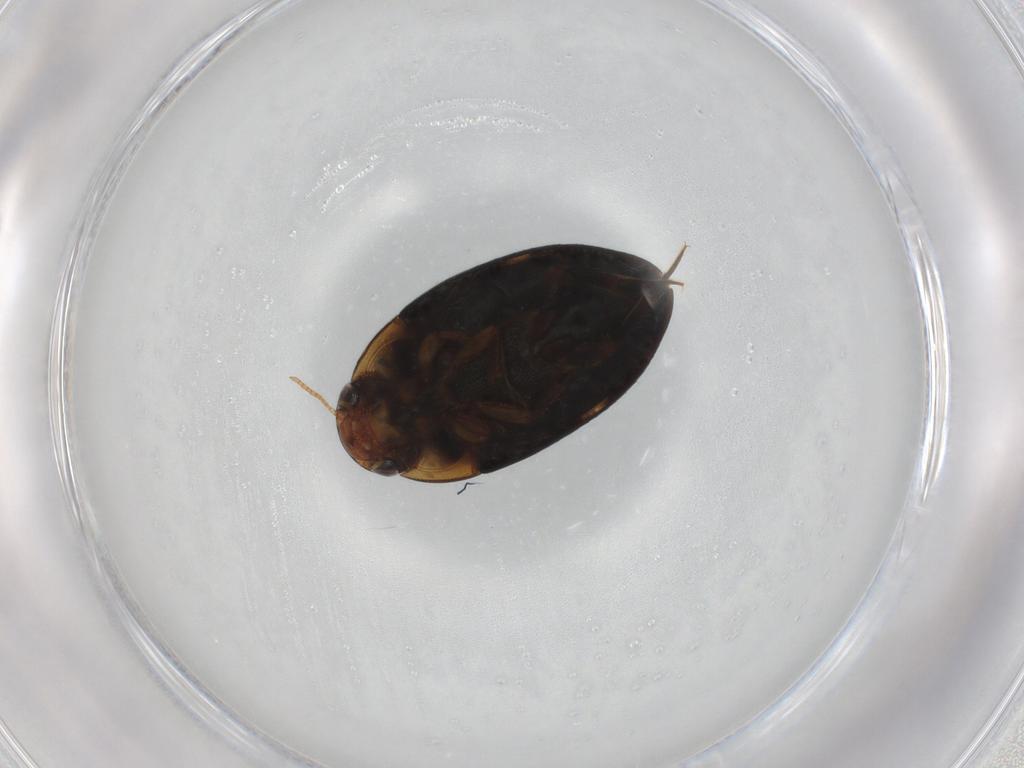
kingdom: Animalia
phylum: Arthropoda
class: Insecta
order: Coleoptera
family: Noteridae
